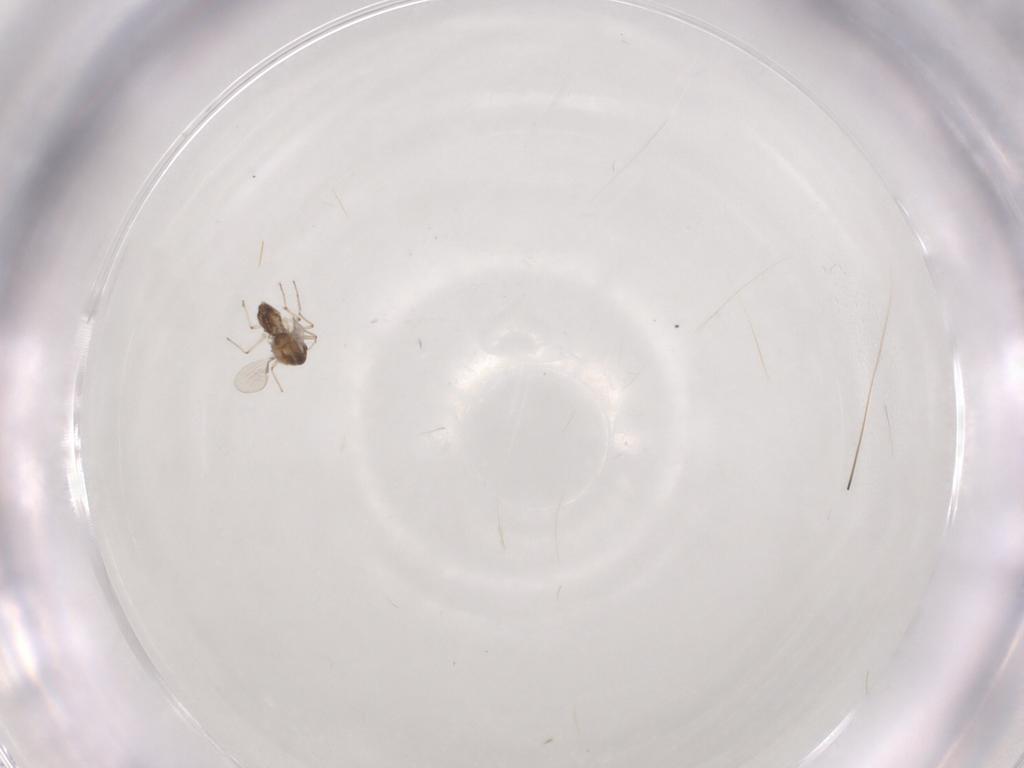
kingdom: Animalia
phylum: Arthropoda
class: Insecta
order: Diptera
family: Chironomidae
